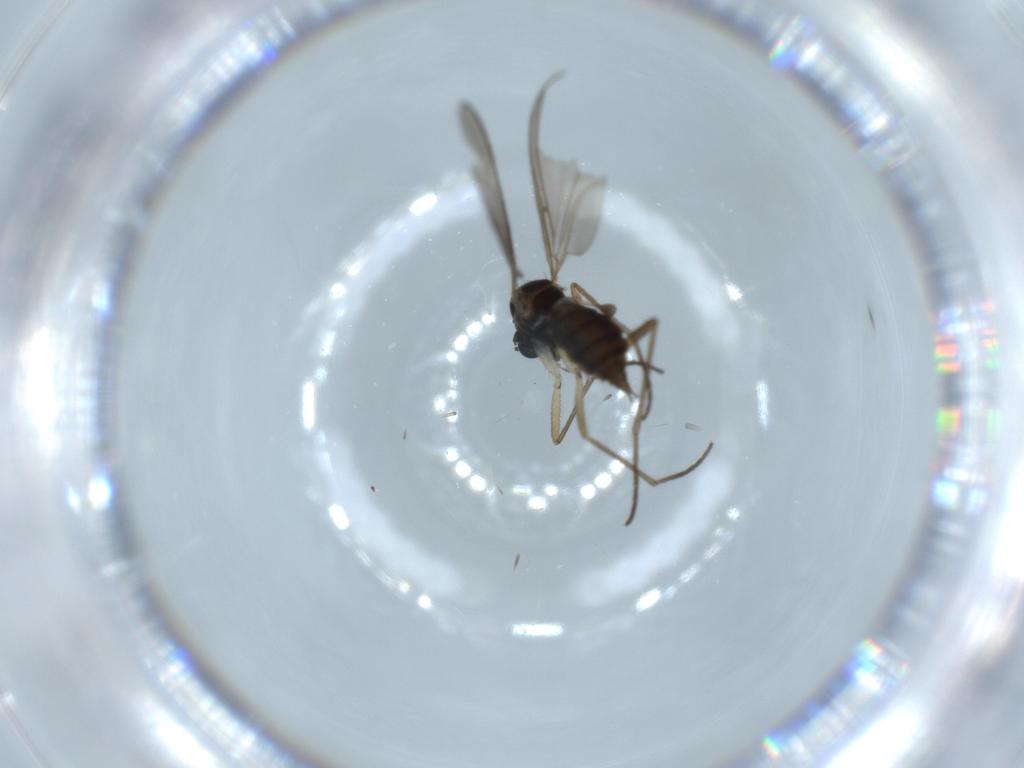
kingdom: Animalia
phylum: Arthropoda
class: Insecta
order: Diptera
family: Sciaridae
